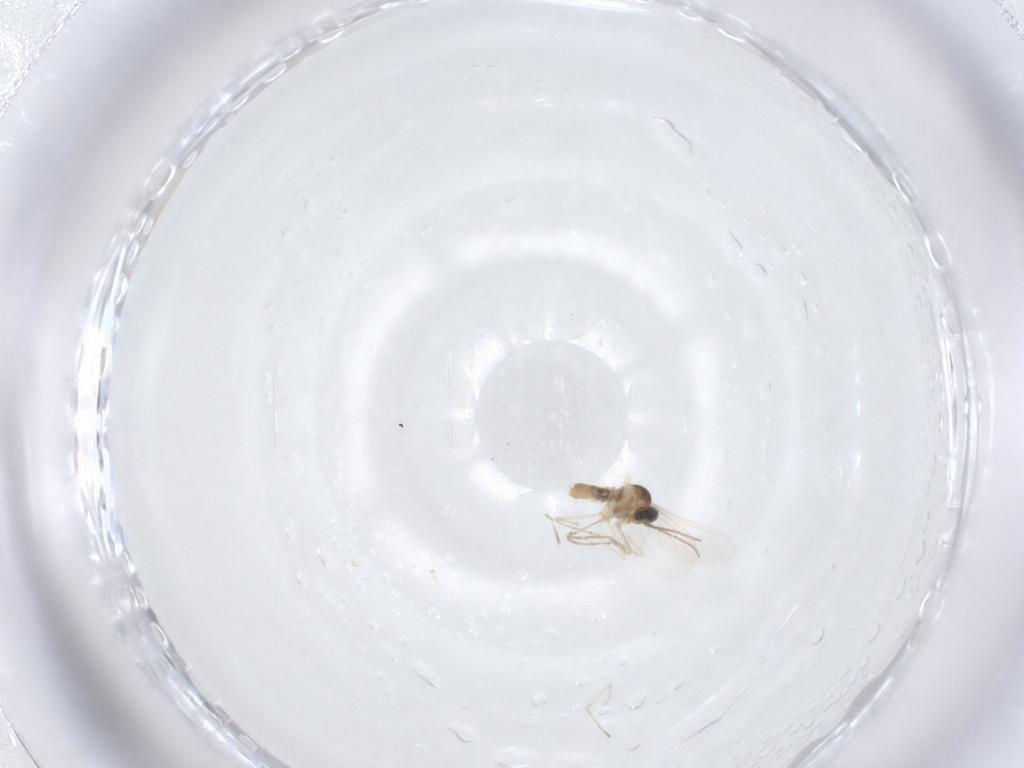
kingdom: Animalia
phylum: Arthropoda
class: Insecta
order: Diptera
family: Cecidomyiidae
